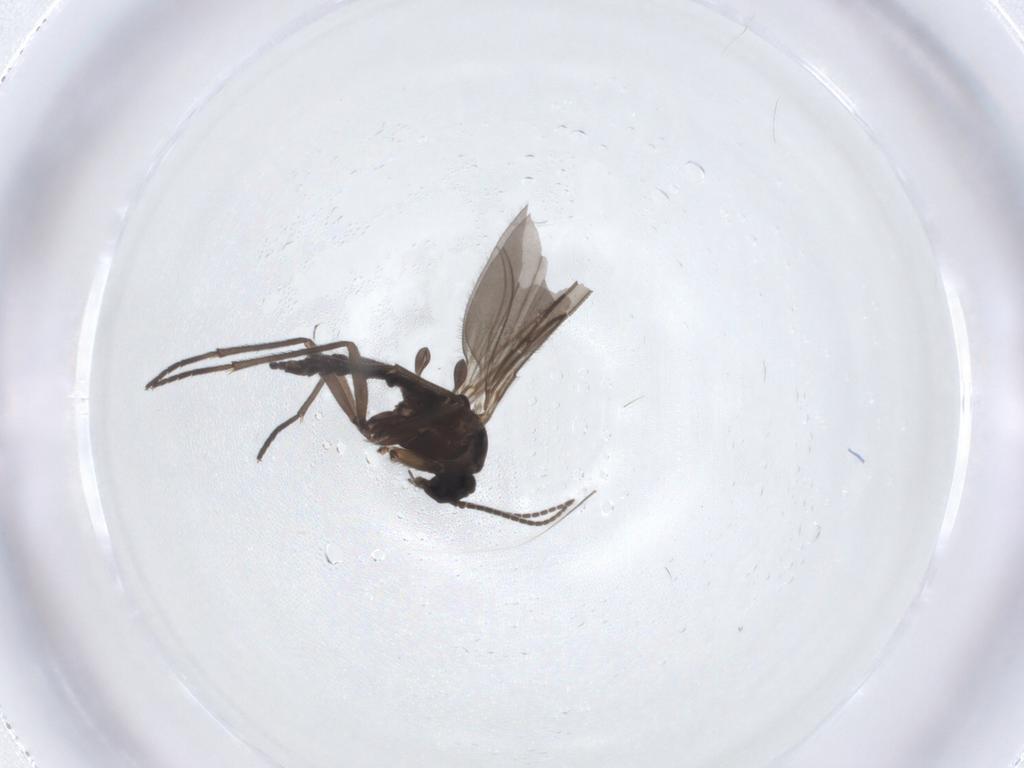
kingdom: Animalia
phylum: Arthropoda
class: Insecta
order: Diptera
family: Sciaridae
